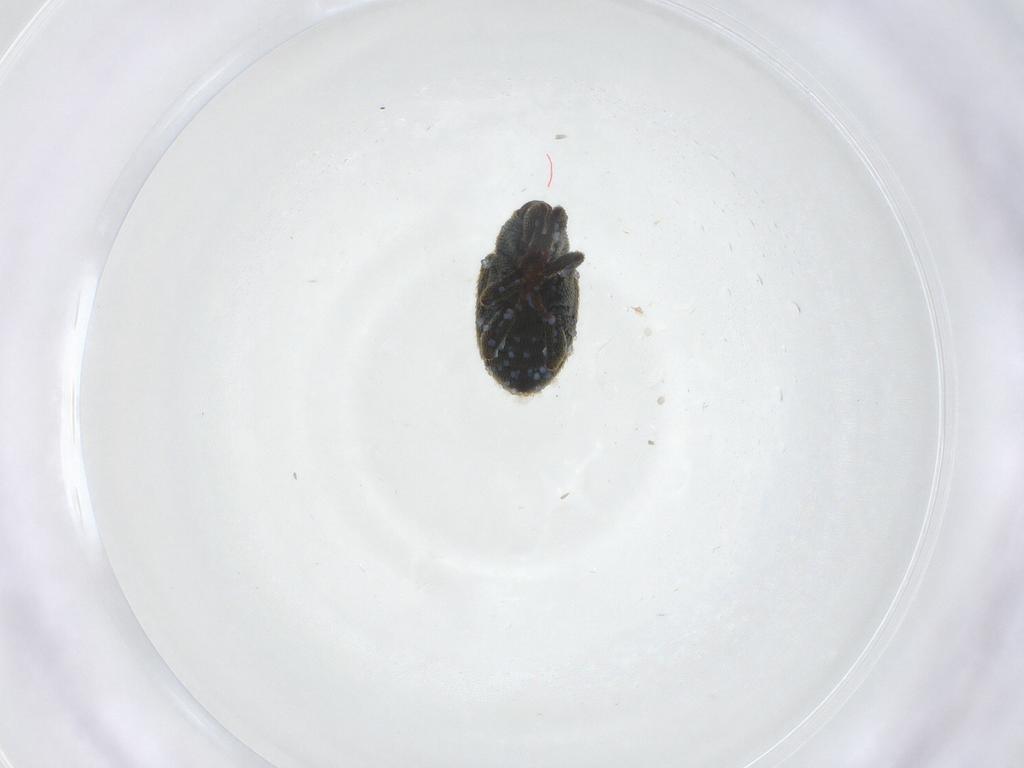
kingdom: Animalia
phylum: Arthropoda
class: Insecta
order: Coleoptera
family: Curculionidae
